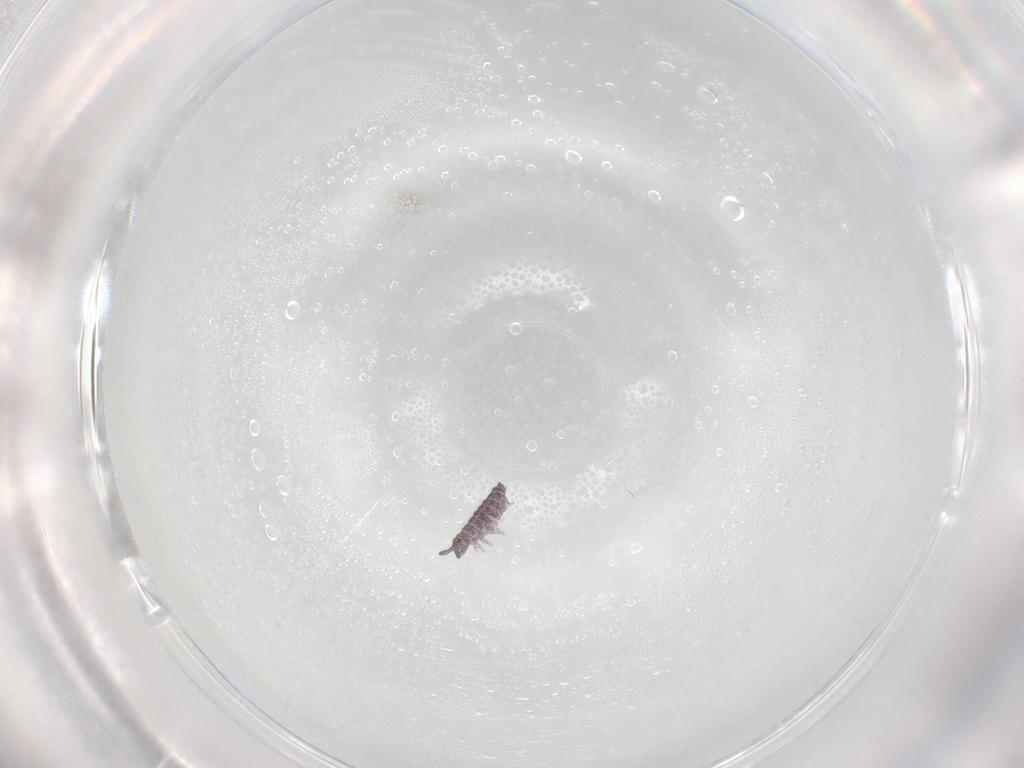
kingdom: Animalia
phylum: Arthropoda
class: Collembola
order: Poduromorpha
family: Hypogastruridae
